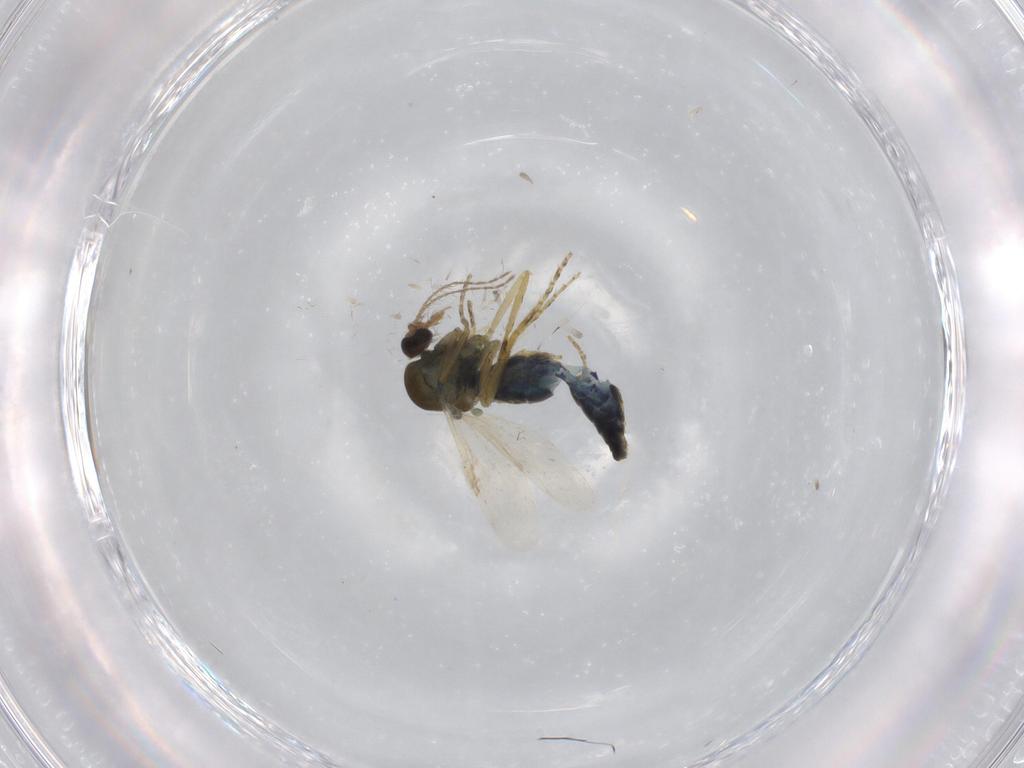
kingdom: Animalia
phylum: Arthropoda
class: Insecta
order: Diptera
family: Ceratopogonidae
